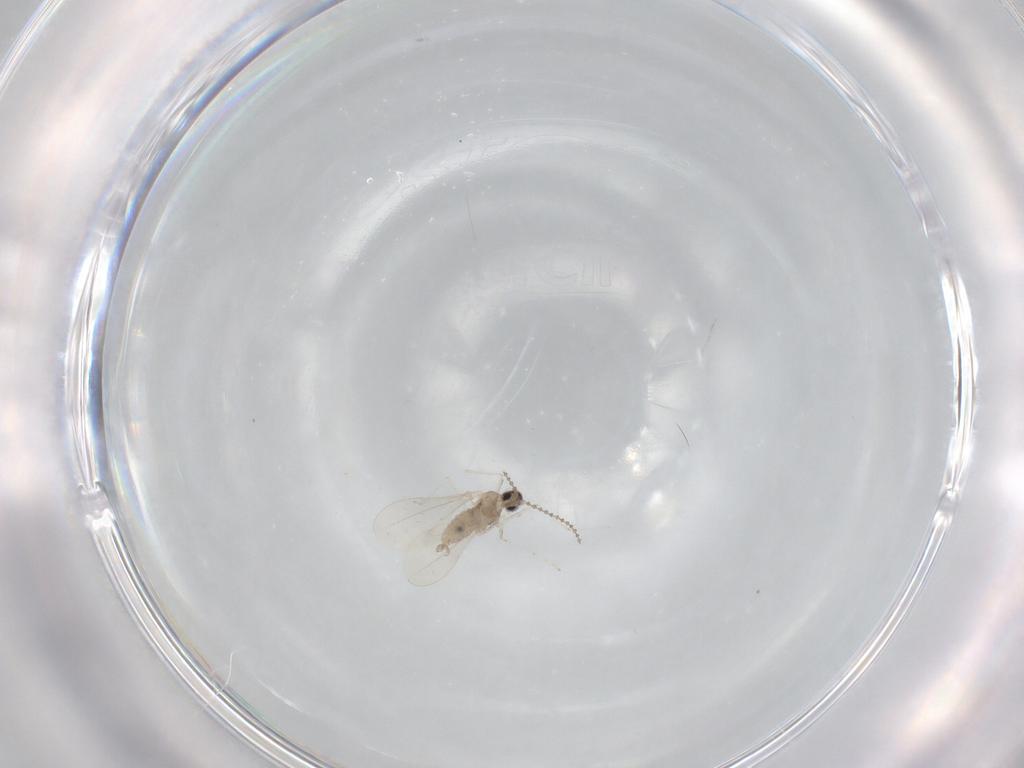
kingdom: Animalia
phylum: Arthropoda
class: Insecta
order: Diptera
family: Cecidomyiidae
